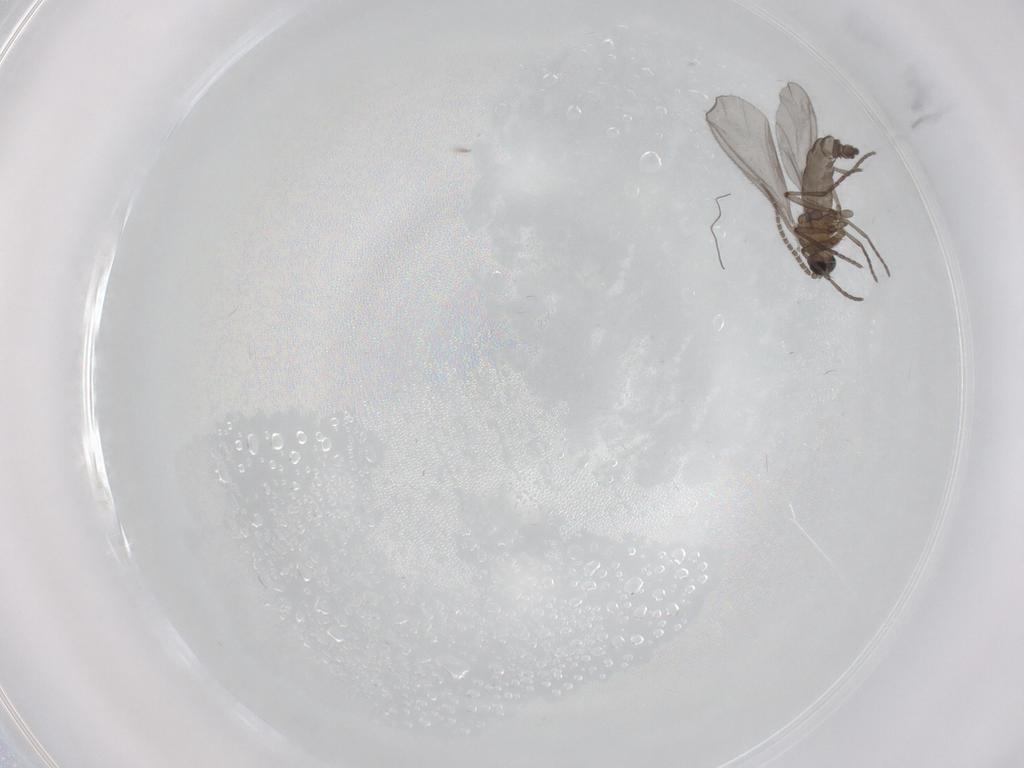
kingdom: Animalia
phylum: Arthropoda
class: Insecta
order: Diptera
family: Sciaridae
